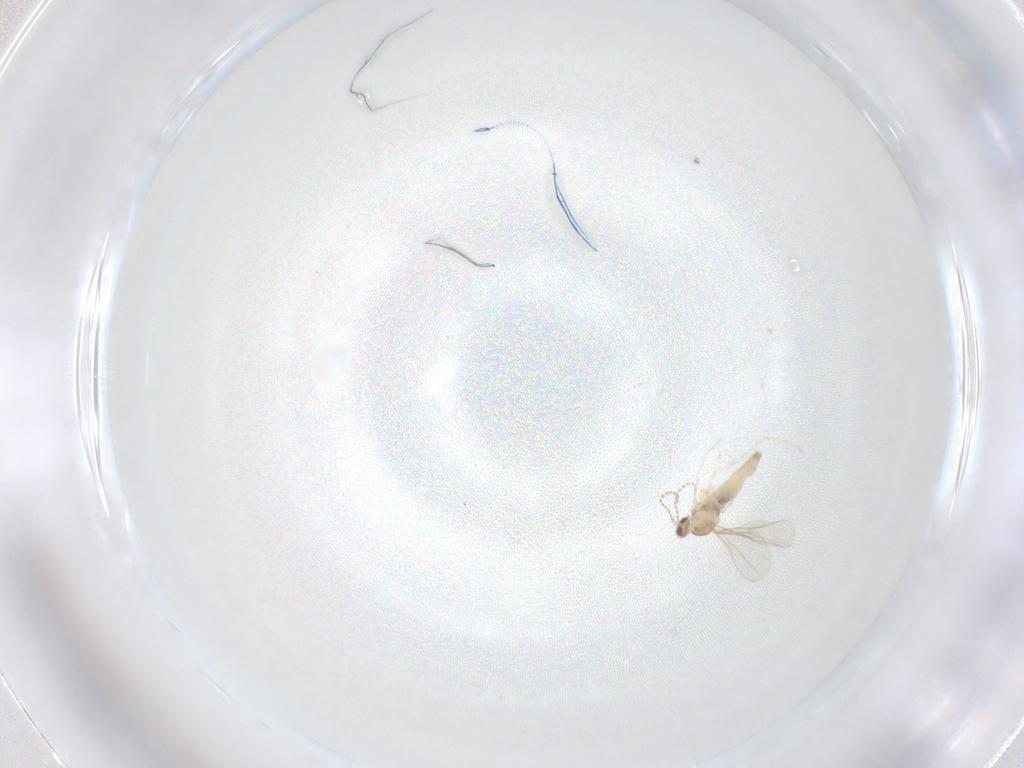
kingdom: Animalia
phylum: Arthropoda
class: Insecta
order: Diptera
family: Cecidomyiidae
